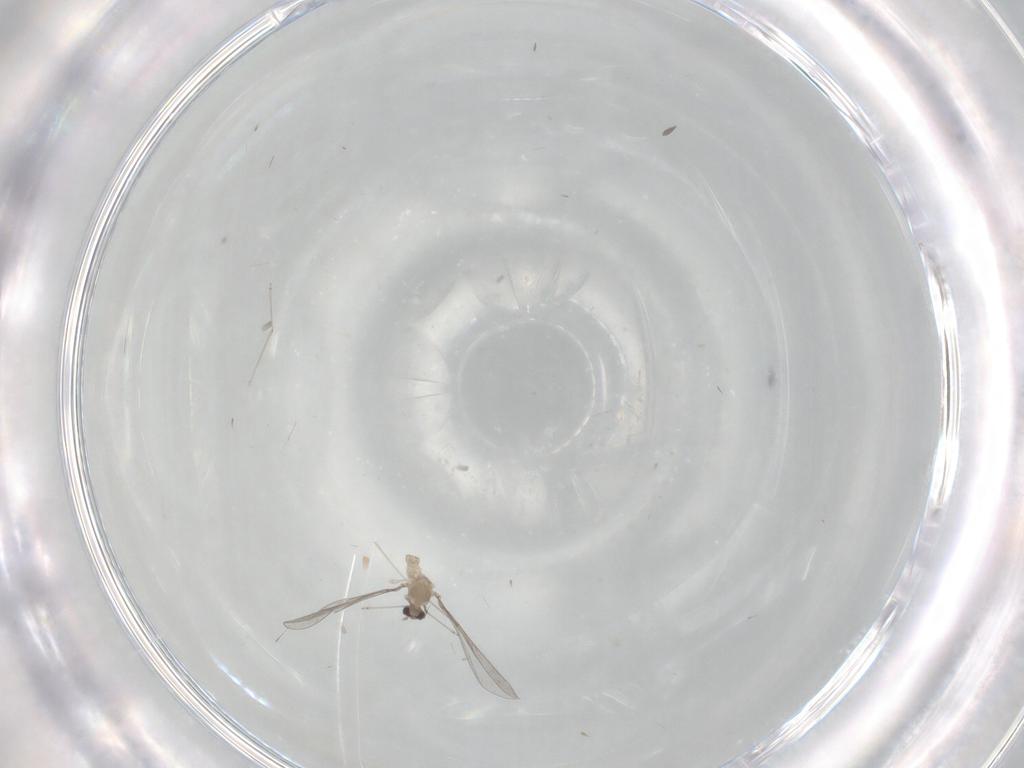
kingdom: Animalia
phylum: Arthropoda
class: Insecta
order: Diptera
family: Cecidomyiidae
